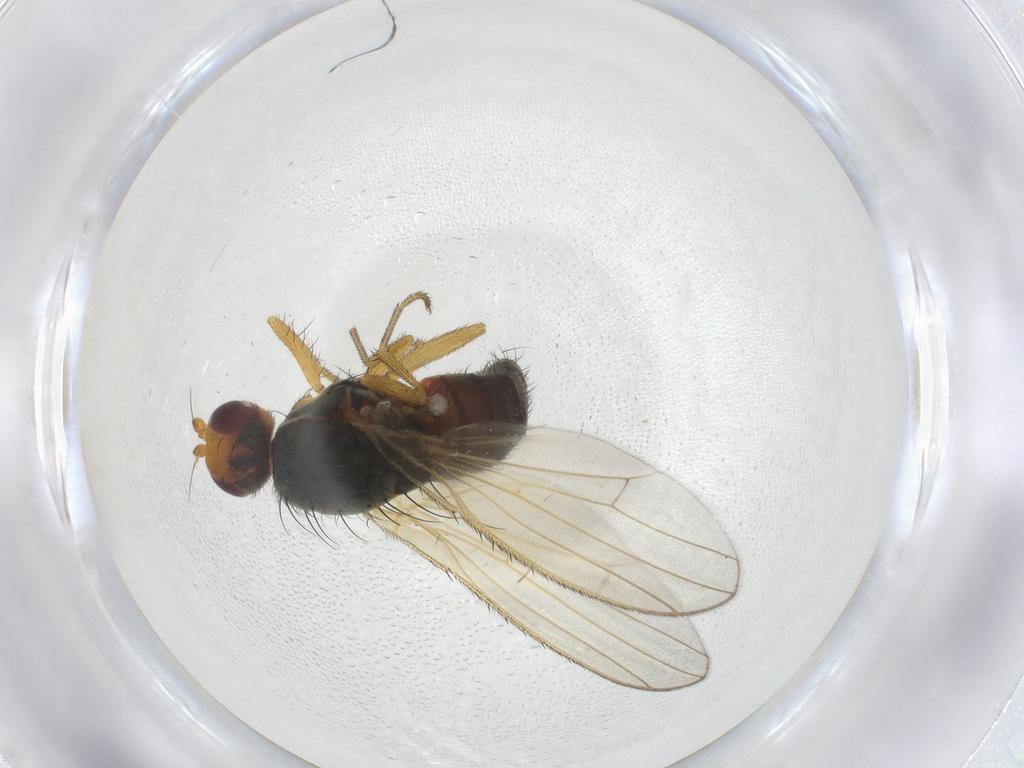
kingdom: Animalia
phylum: Arthropoda
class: Insecta
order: Diptera
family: Heleomyzidae
